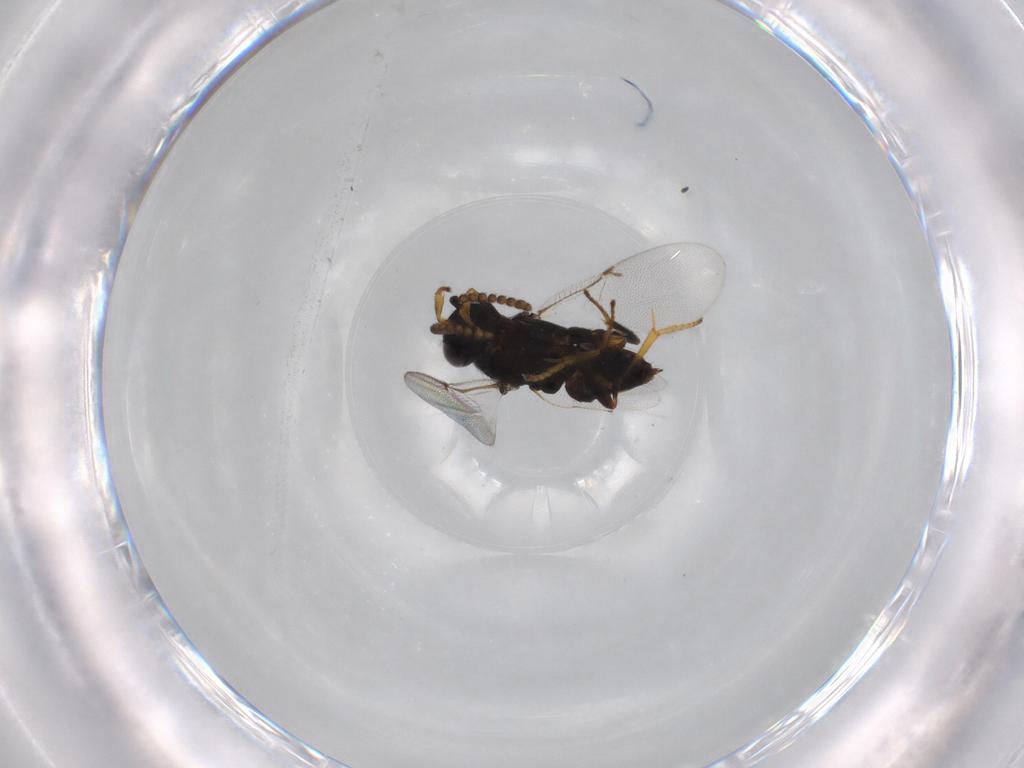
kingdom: Animalia
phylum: Arthropoda
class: Insecta
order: Hymenoptera
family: Encyrtidae
